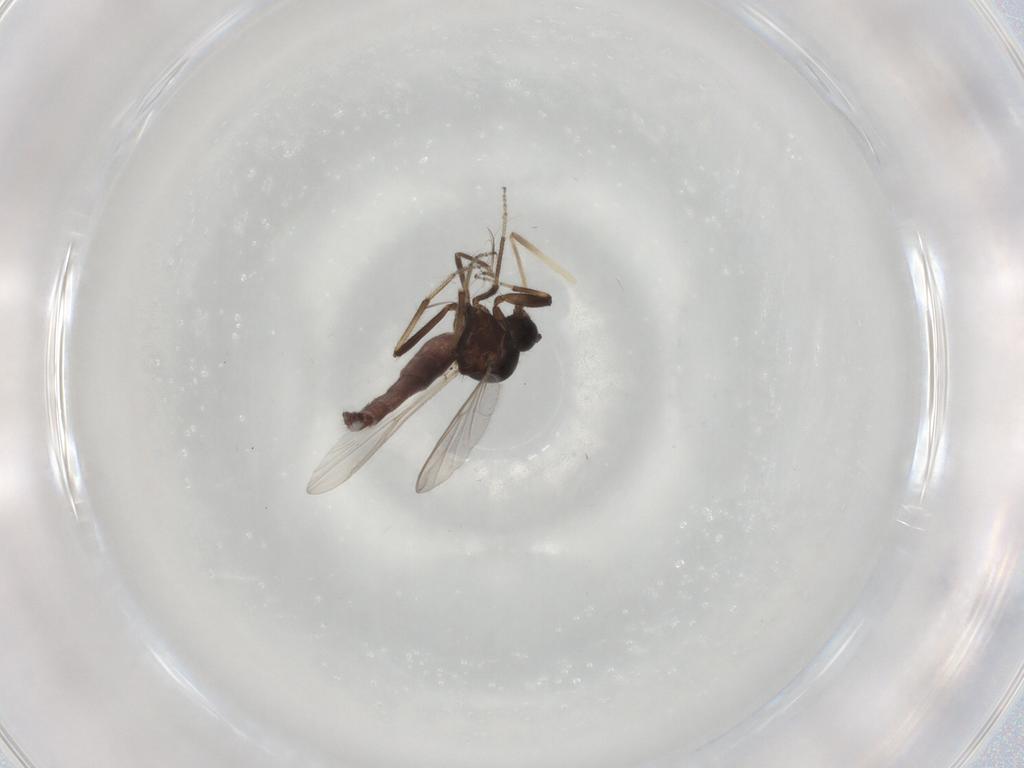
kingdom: Animalia
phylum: Arthropoda
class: Insecta
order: Diptera
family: Ceratopogonidae
